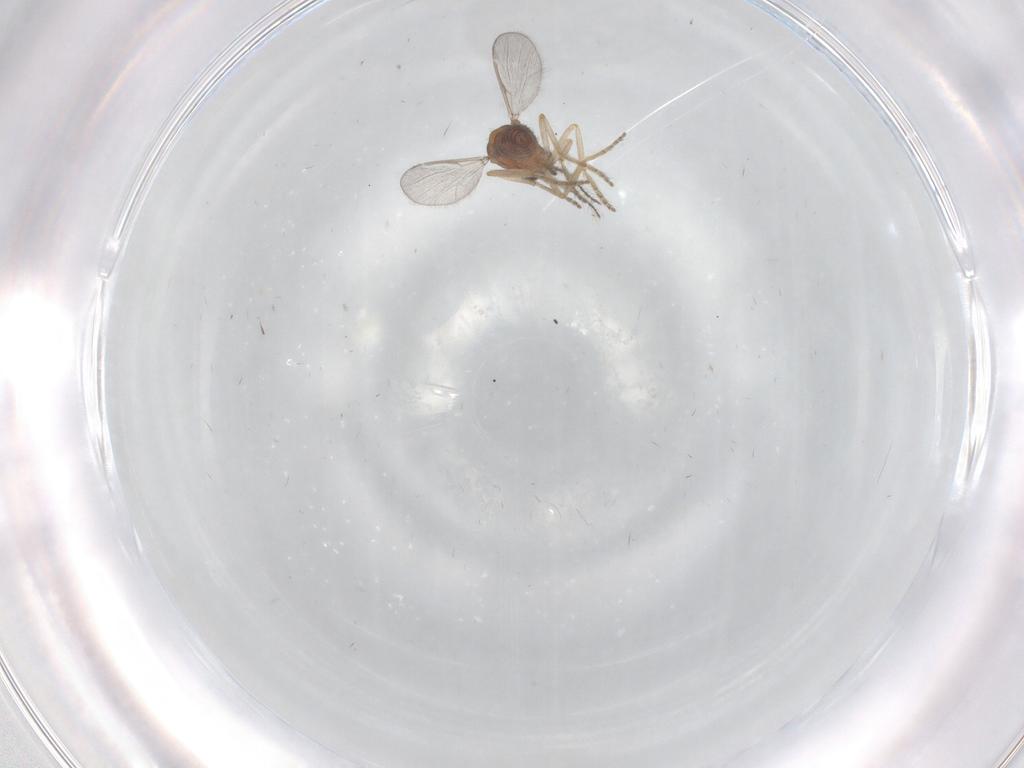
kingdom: Animalia
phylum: Arthropoda
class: Insecta
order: Diptera
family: Ceratopogonidae
